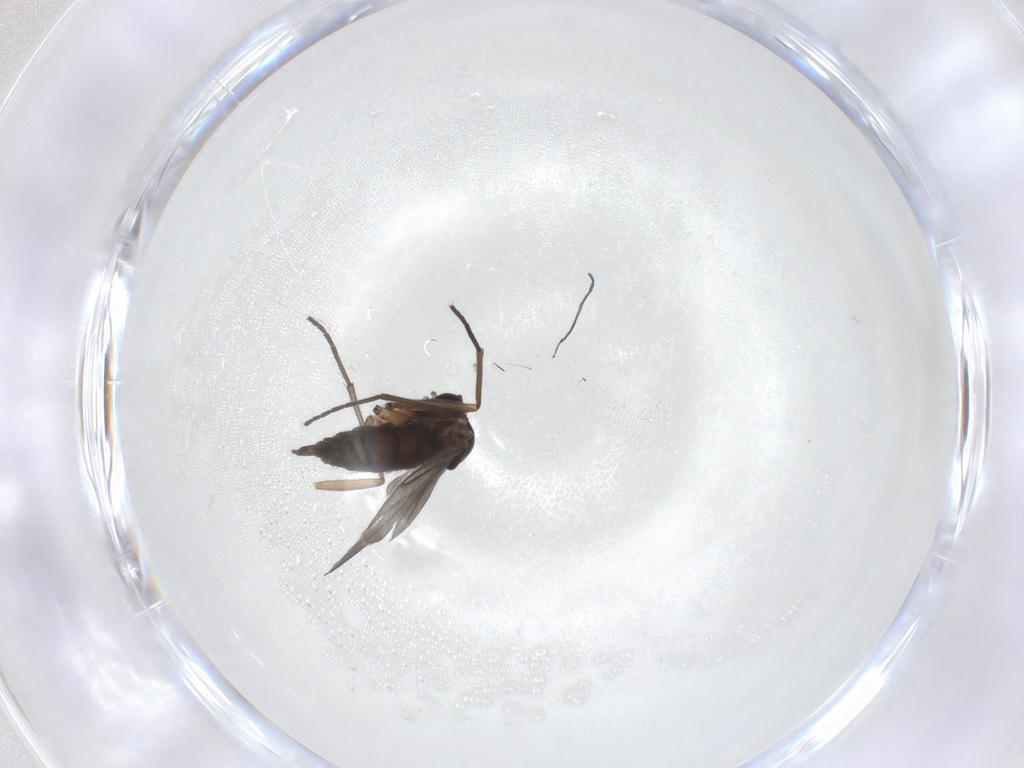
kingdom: Animalia
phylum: Arthropoda
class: Insecta
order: Diptera
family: Sciaridae
